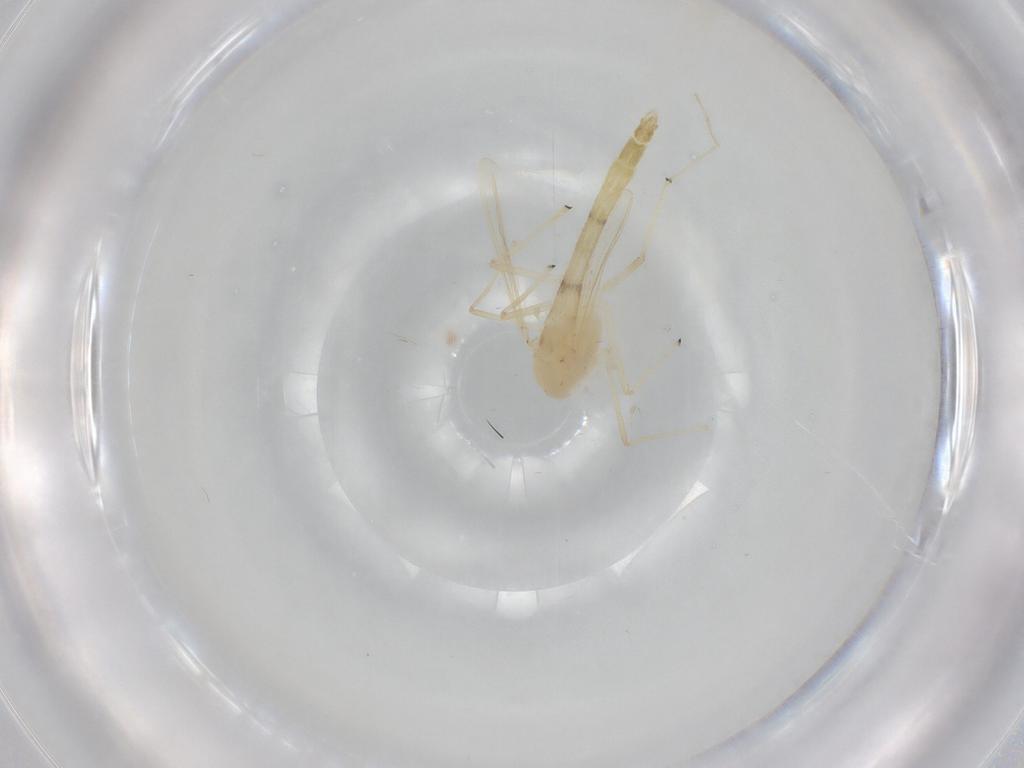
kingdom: Animalia
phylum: Arthropoda
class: Insecta
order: Diptera
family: Chironomidae
